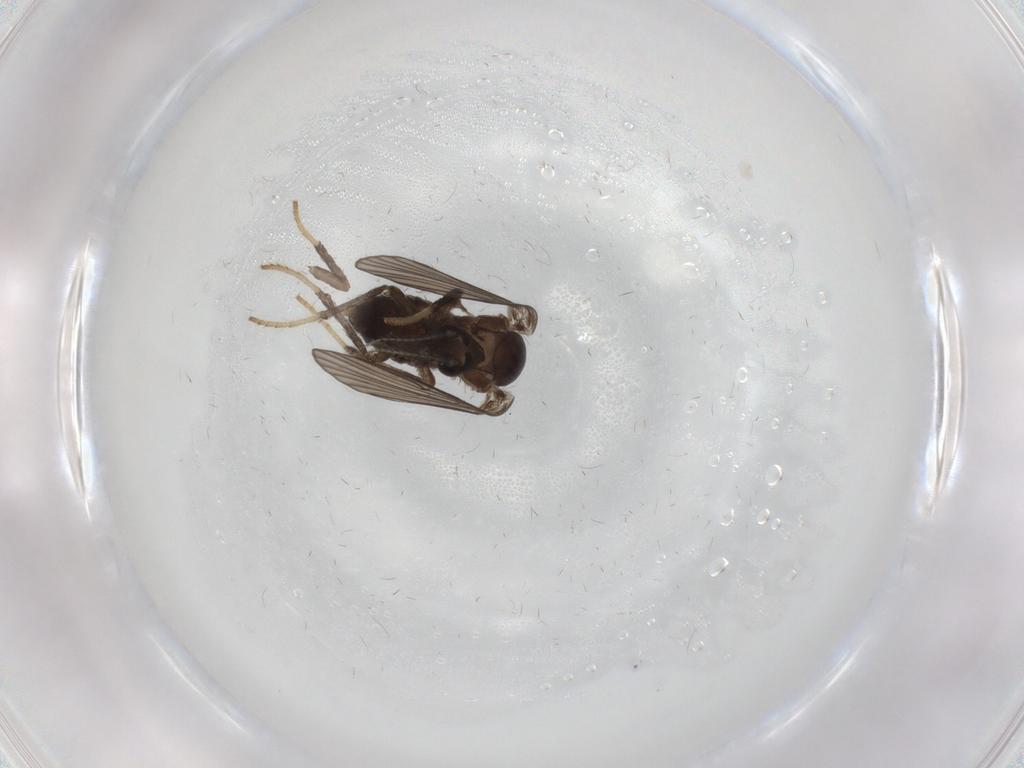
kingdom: Animalia
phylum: Arthropoda
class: Insecta
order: Diptera
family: Psychodidae
